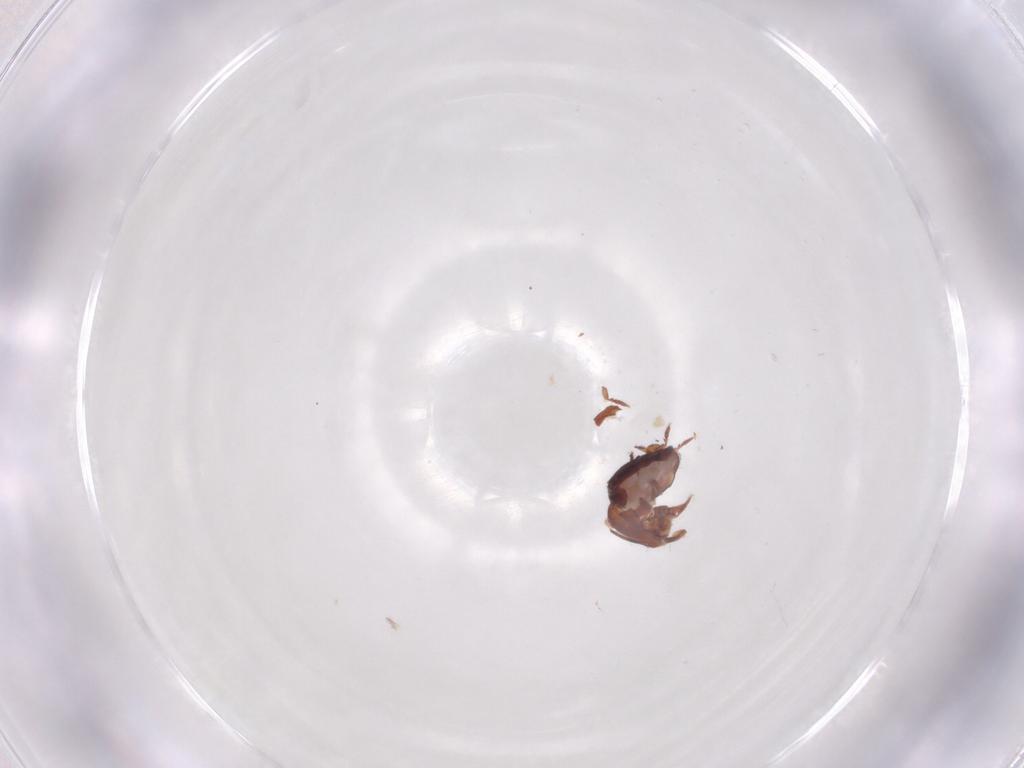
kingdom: Animalia
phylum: Arthropoda
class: Arachnida
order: Sarcoptiformes
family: Humerobatidae
